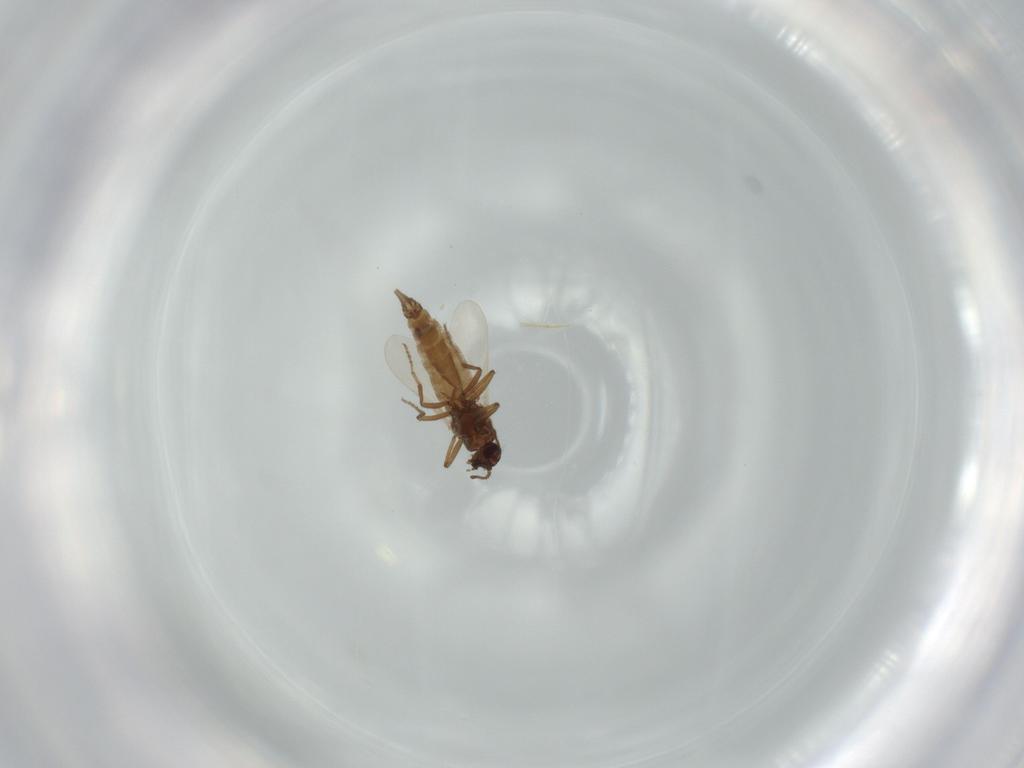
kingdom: Animalia
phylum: Arthropoda
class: Insecta
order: Diptera
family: Ceratopogonidae
